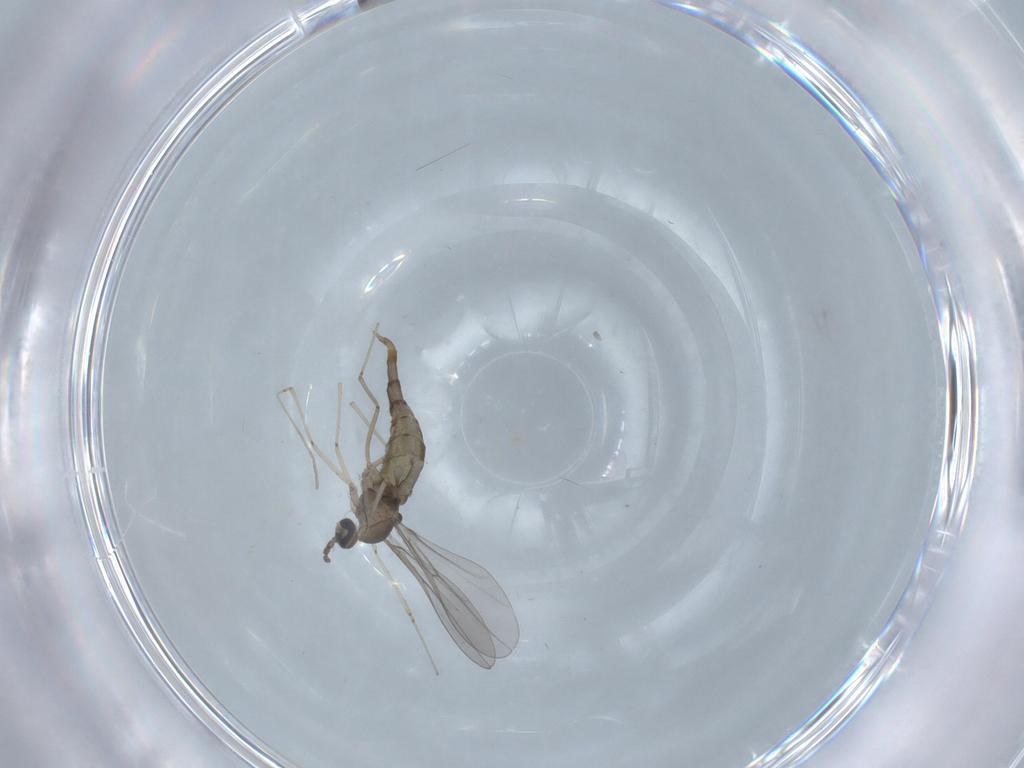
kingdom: Animalia
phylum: Arthropoda
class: Insecta
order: Diptera
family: Cecidomyiidae
